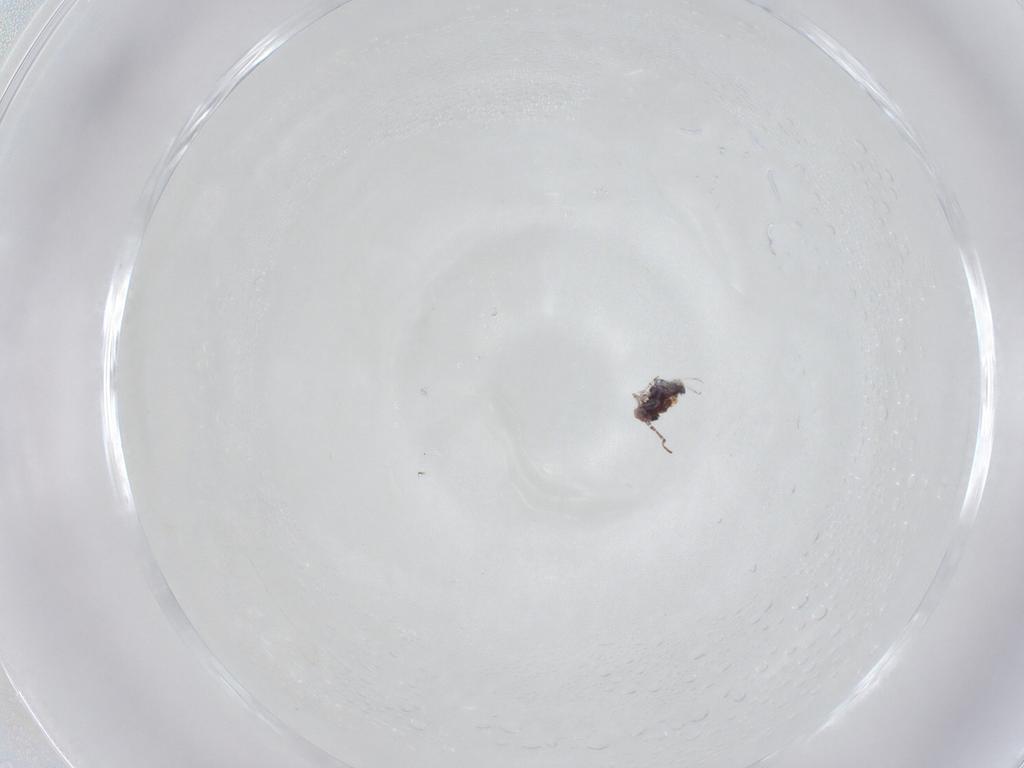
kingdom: Animalia
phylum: Arthropoda
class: Collembola
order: Symphypleona
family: Bourletiellidae
